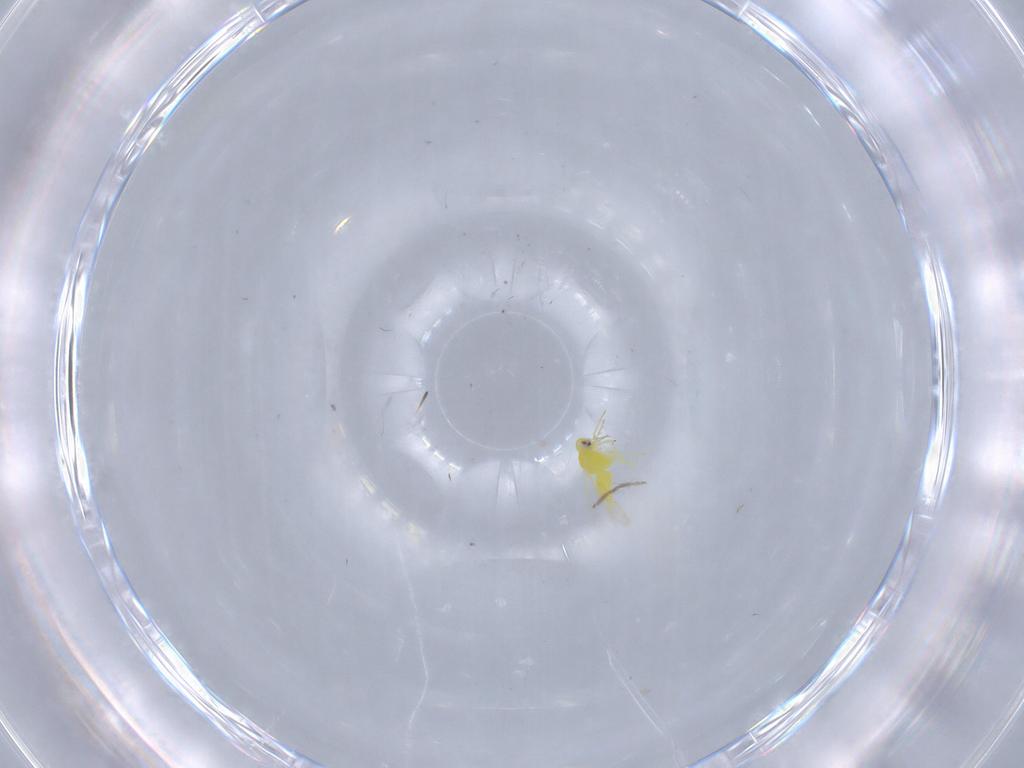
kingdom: Animalia
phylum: Arthropoda
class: Insecta
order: Hemiptera
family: Aleyrodidae
